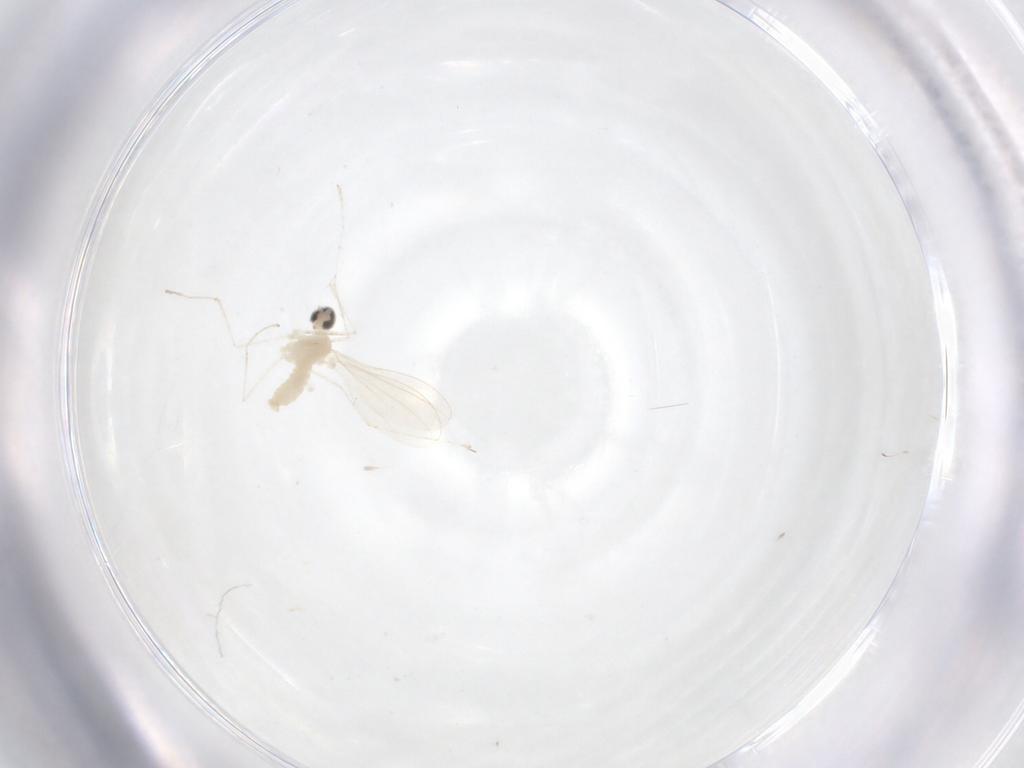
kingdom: Animalia
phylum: Arthropoda
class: Insecta
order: Diptera
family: Cecidomyiidae
